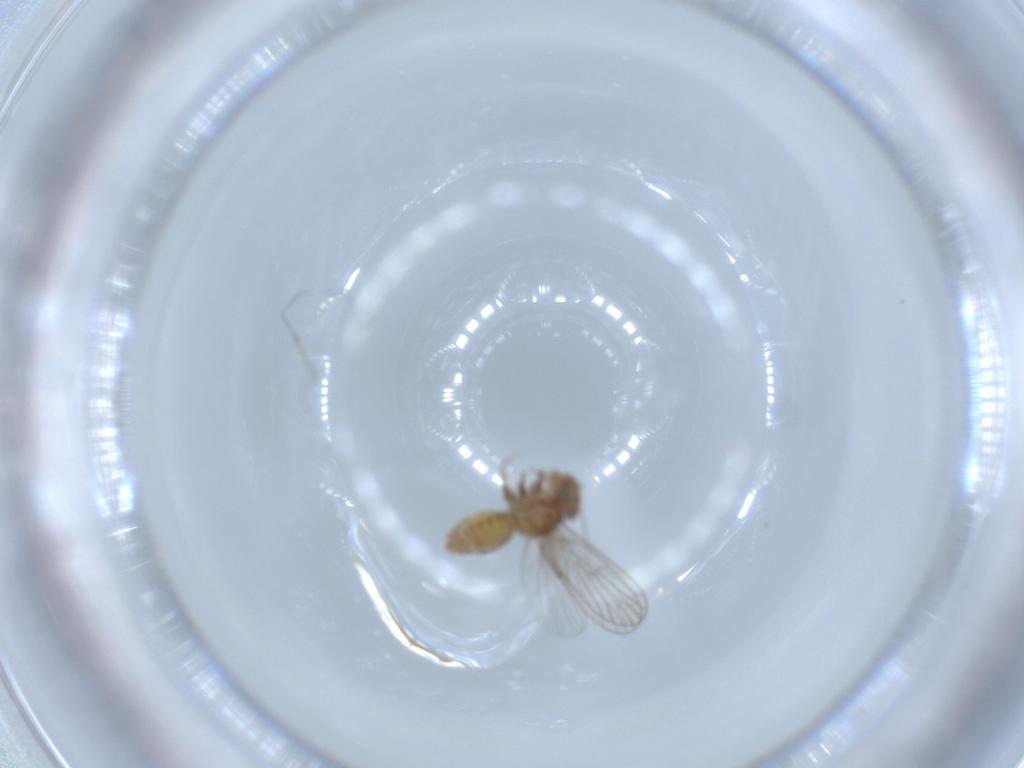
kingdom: Animalia
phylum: Arthropoda
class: Insecta
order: Psocodea
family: Psoquillidae
